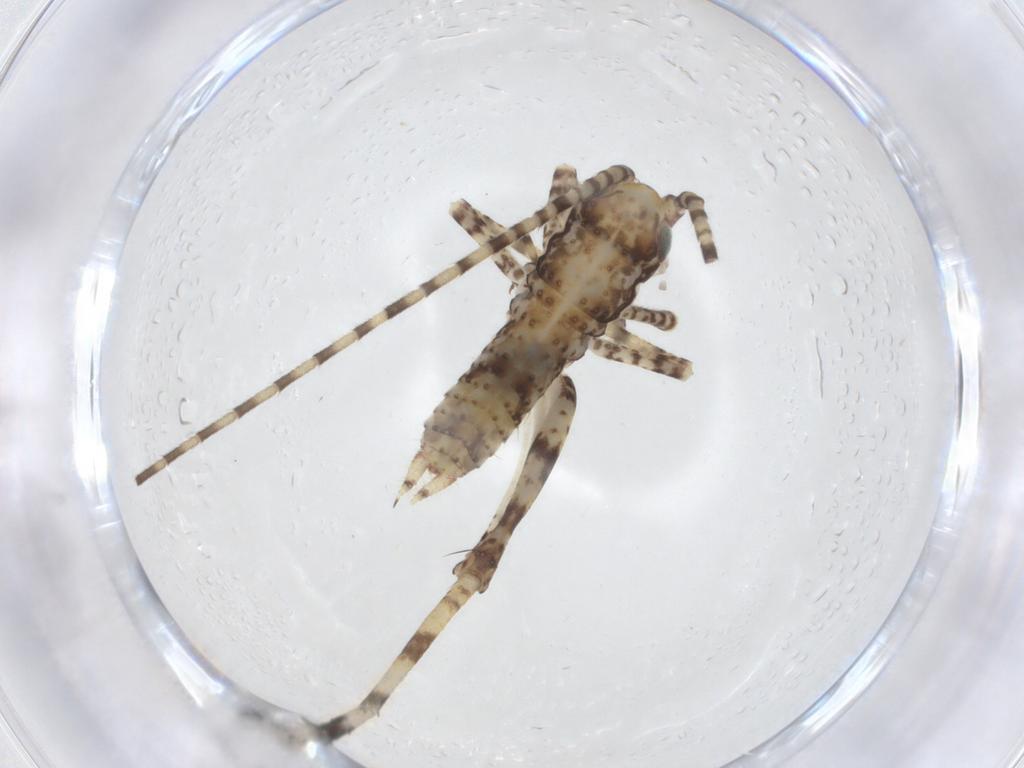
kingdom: Animalia
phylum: Arthropoda
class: Insecta
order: Orthoptera
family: Gryllidae
